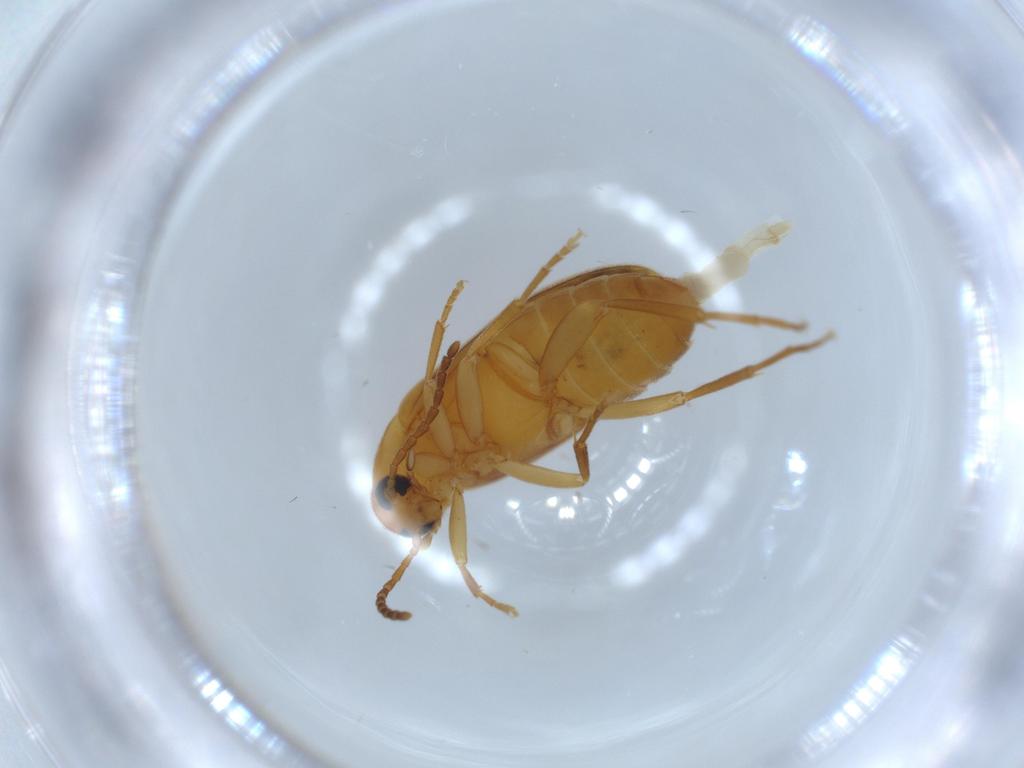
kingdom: Animalia
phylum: Arthropoda
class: Insecta
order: Coleoptera
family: Scraptiidae
